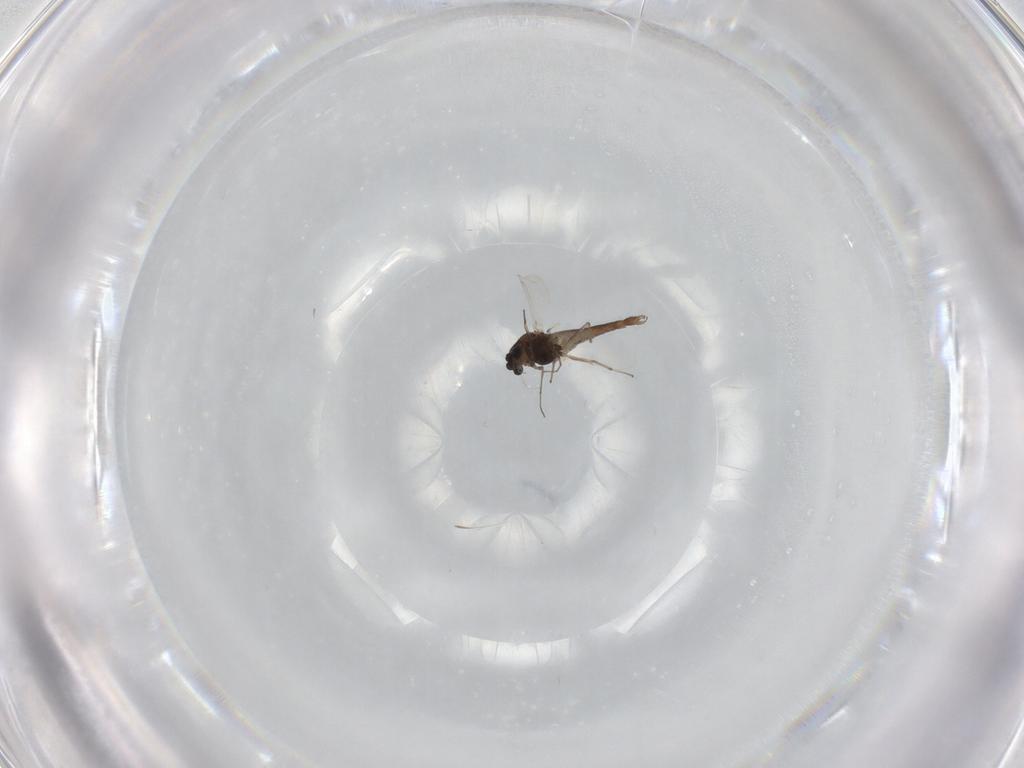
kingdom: Animalia
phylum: Arthropoda
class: Insecta
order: Diptera
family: Chironomidae
